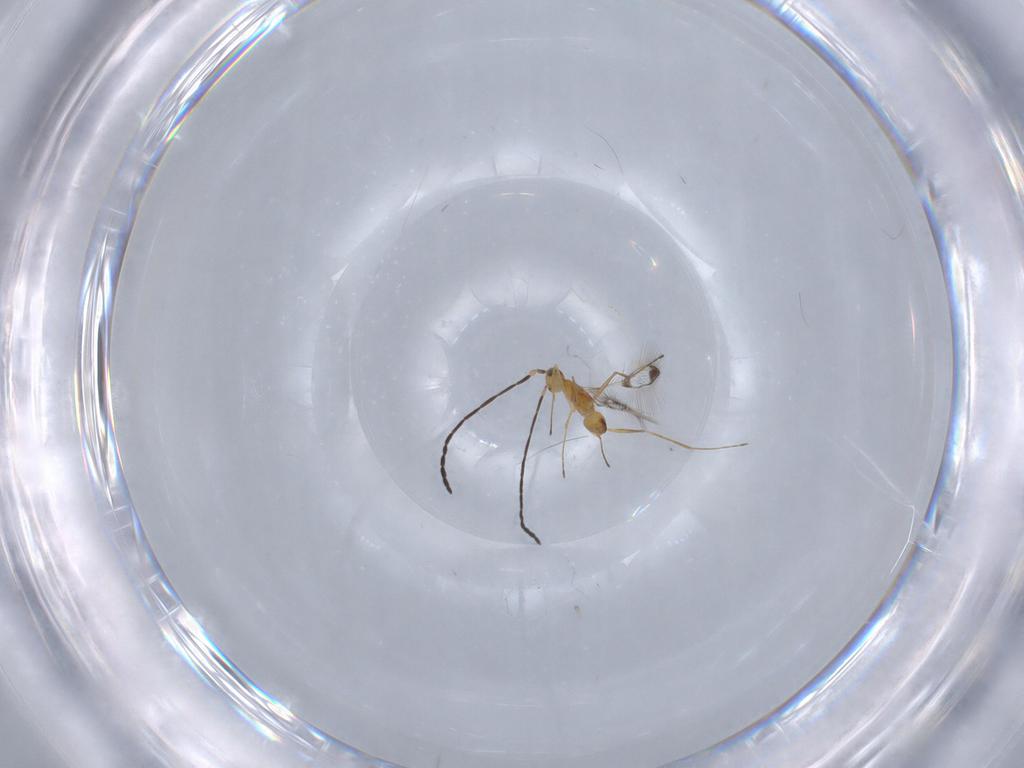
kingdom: Animalia
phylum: Arthropoda
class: Insecta
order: Hymenoptera
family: Mymaridae
